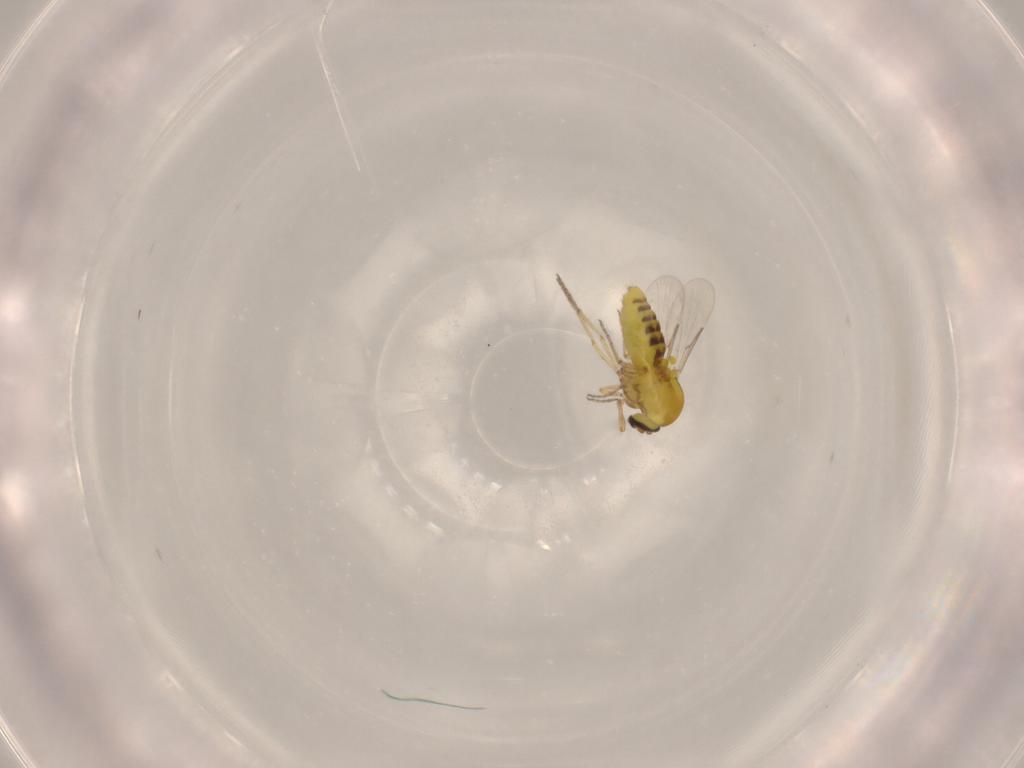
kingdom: Animalia
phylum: Arthropoda
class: Insecta
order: Diptera
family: Ceratopogonidae
